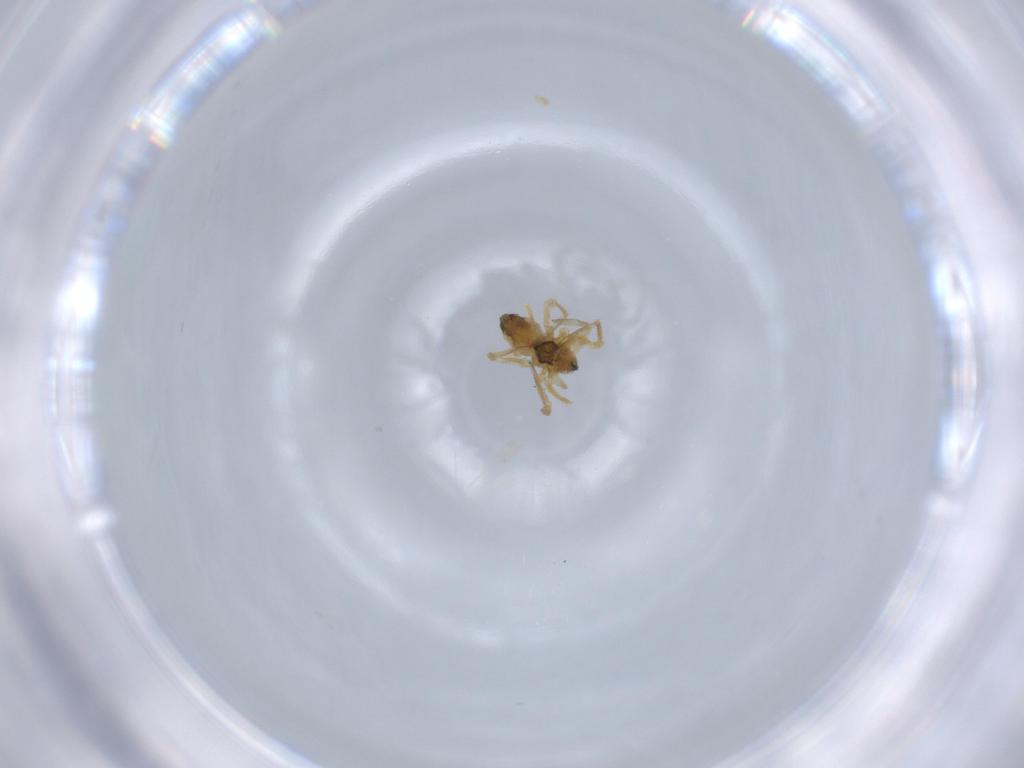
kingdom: Animalia
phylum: Arthropoda
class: Arachnida
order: Araneae
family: Linyphiidae
